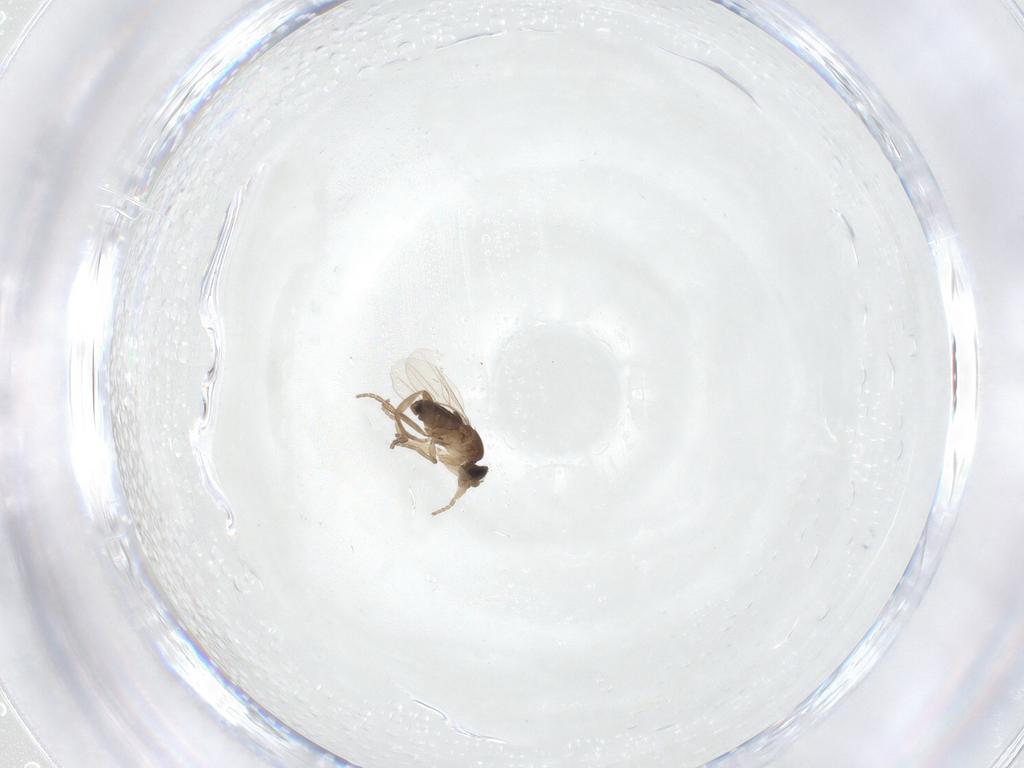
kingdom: Animalia
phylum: Arthropoda
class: Insecta
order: Diptera
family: Phoridae
